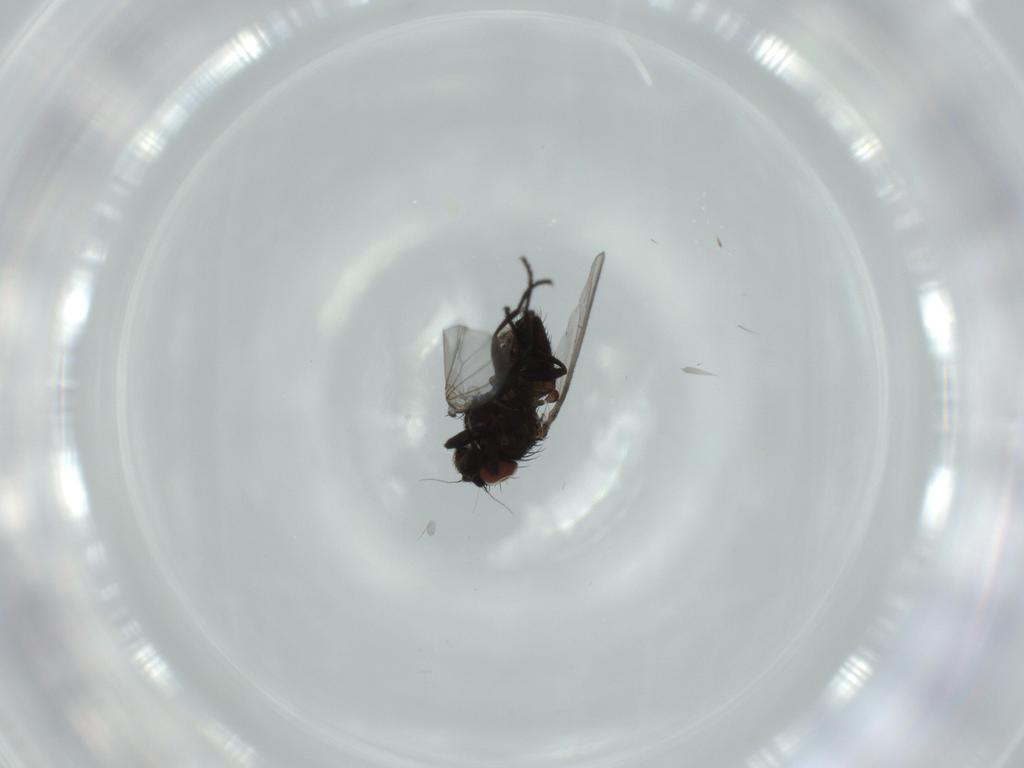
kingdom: Animalia
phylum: Arthropoda
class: Insecta
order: Diptera
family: Milichiidae
